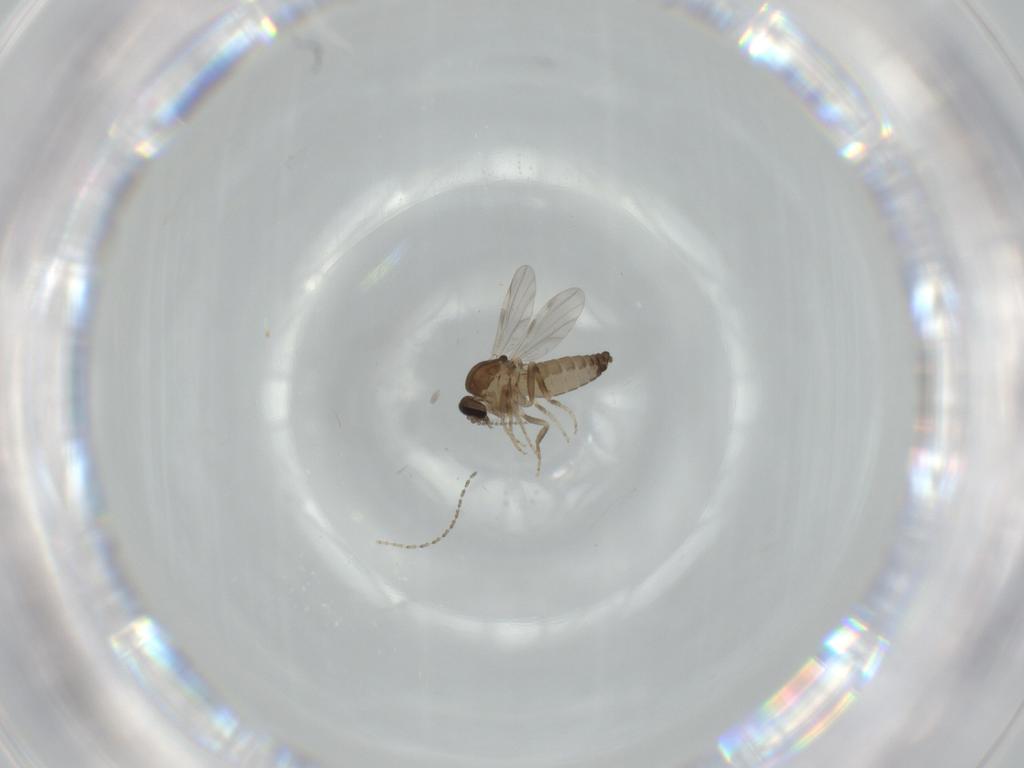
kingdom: Animalia
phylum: Arthropoda
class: Insecta
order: Diptera
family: Ceratopogonidae
